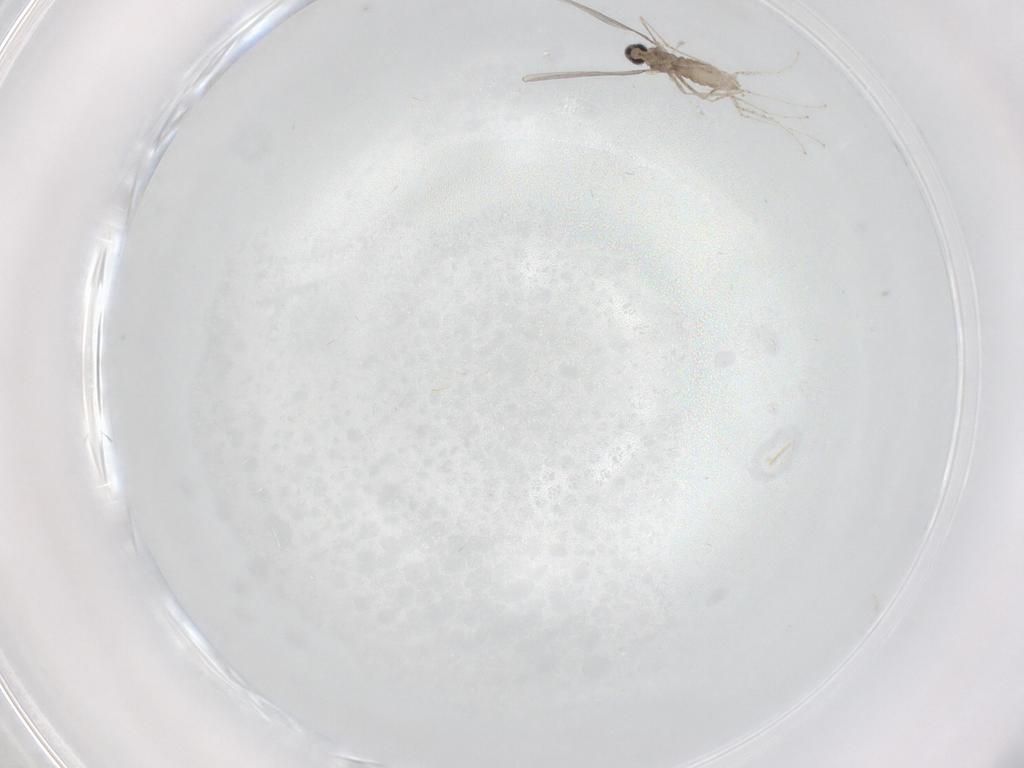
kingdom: Animalia
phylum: Arthropoda
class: Insecta
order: Diptera
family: Cecidomyiidae
